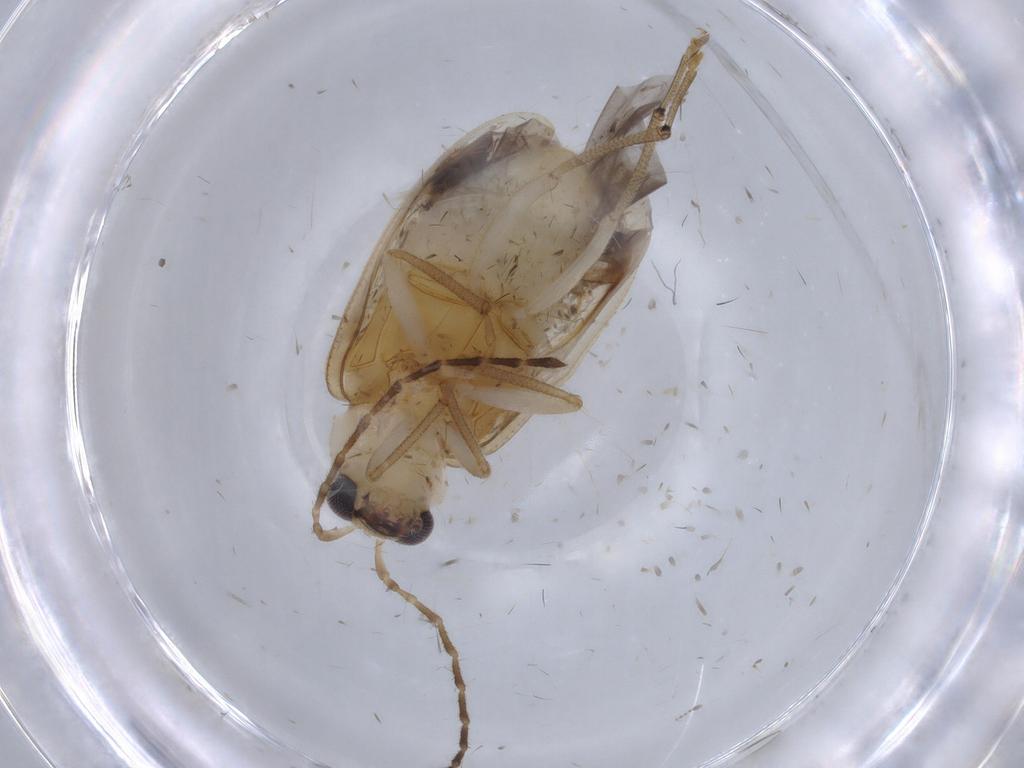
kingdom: Animalia
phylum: Arthropoda
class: Insecta
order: Coleoptera
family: Chrysomelidae
